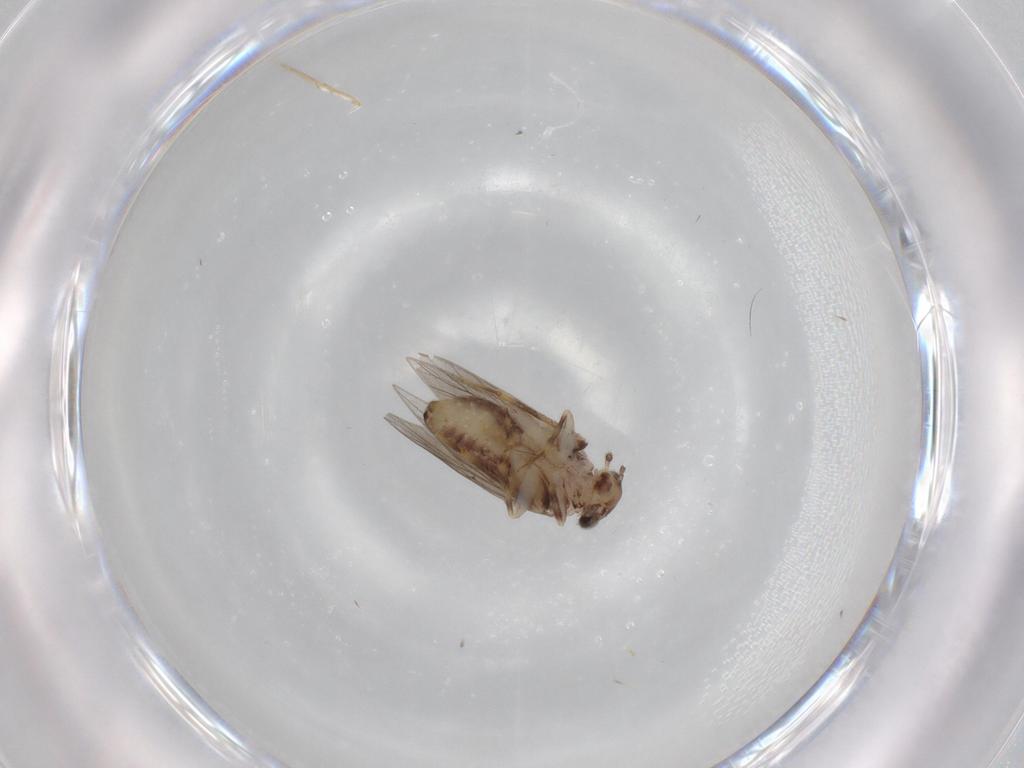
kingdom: Animalia
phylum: Arthropoda
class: Insecta
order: Psocodea
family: Lepidopsocidae
